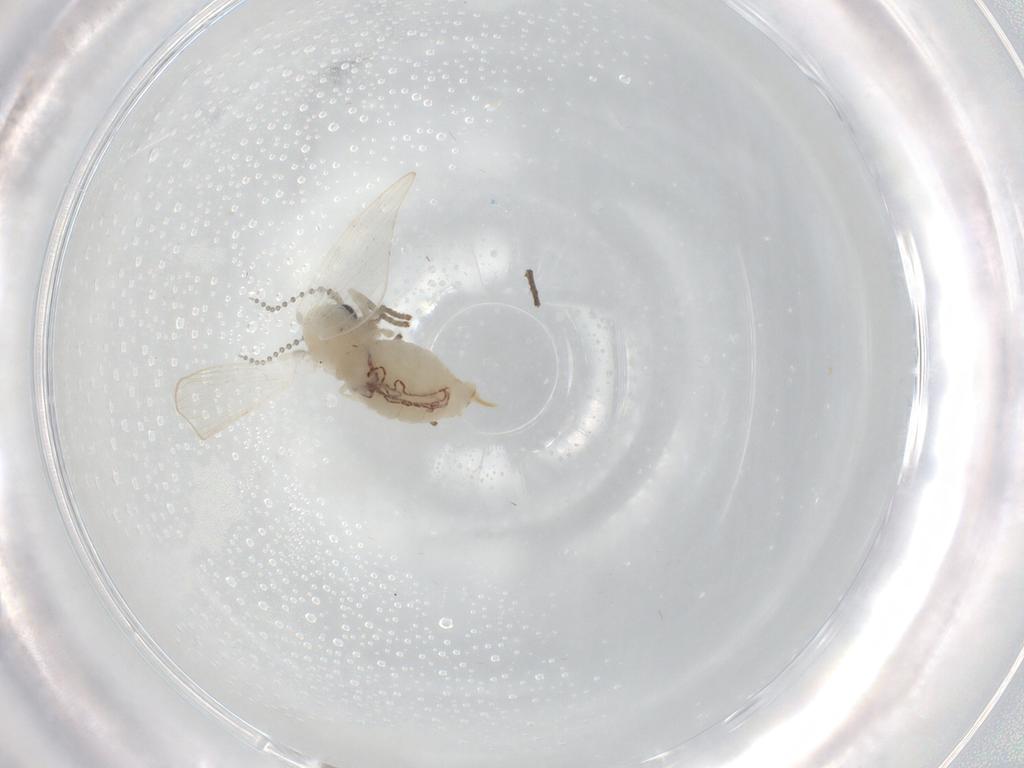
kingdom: Animalia
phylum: Arthropoda
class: Insecta
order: Diptera
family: Psychodidae
